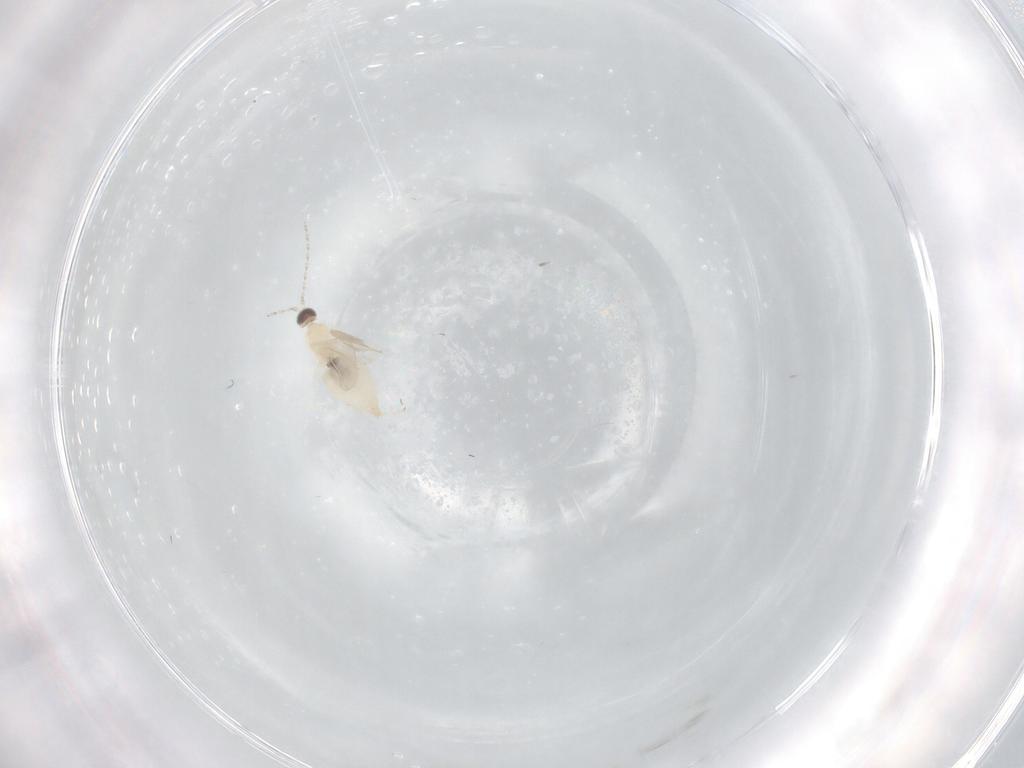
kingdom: Animalia
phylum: Arthropoda
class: Insecta
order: Diptera
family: Cecidomyiidae
